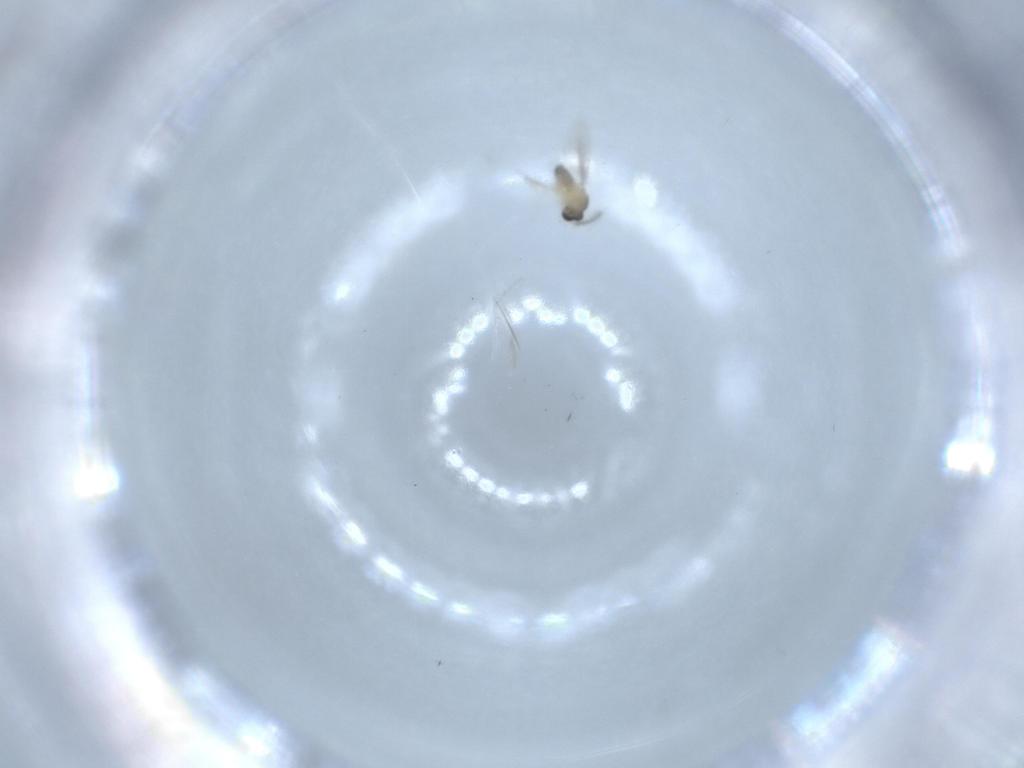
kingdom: Animalia
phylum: Arthropoda
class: Insecta
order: Diptera
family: Cecidomyiidae
